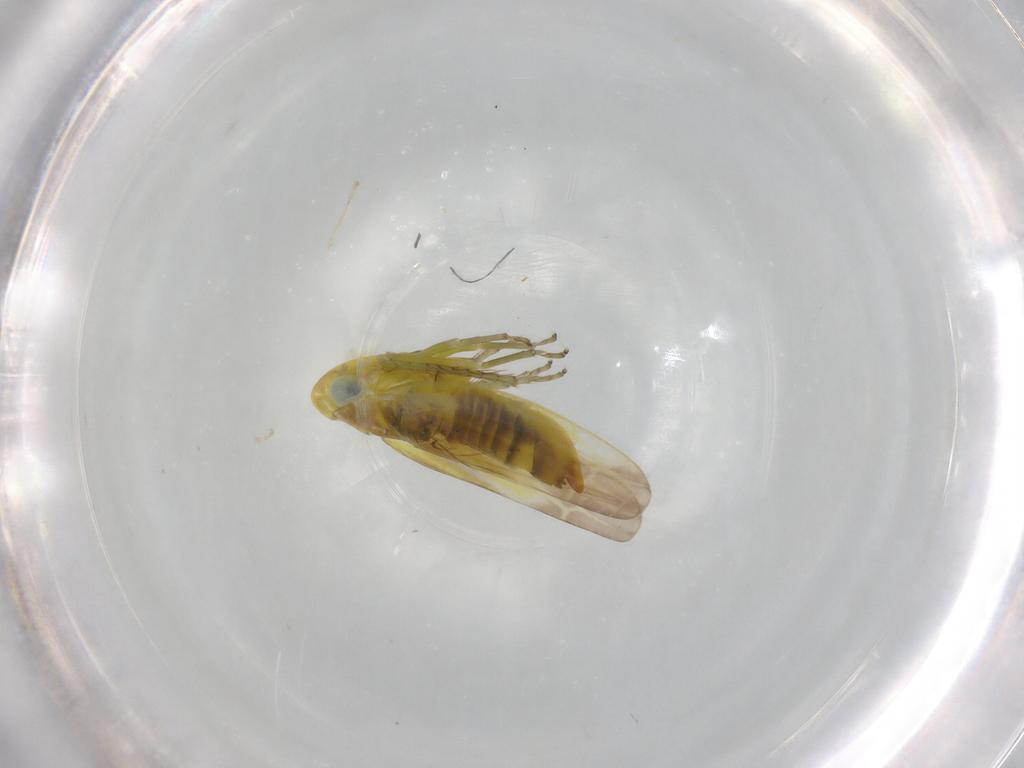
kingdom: Animalia
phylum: Arthropoda
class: Insecta
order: Hemiptera
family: Cicadellidae
